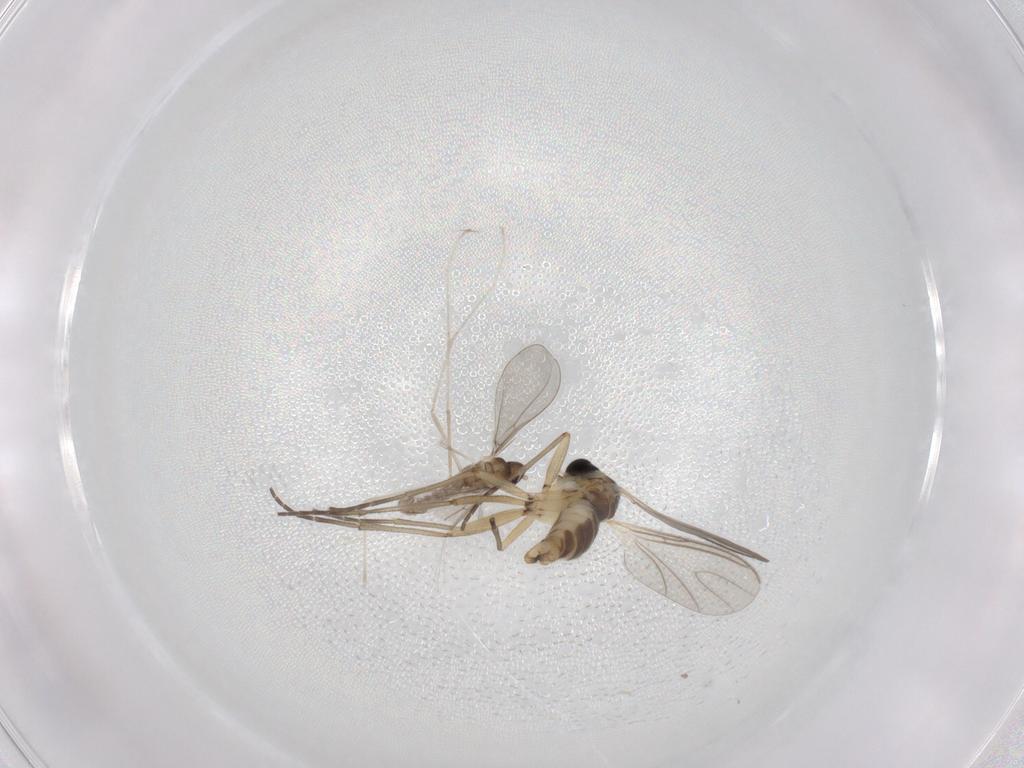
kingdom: Animalia
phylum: Arthropoda
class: Insecta
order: Diptera
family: Cecidomyiidae
